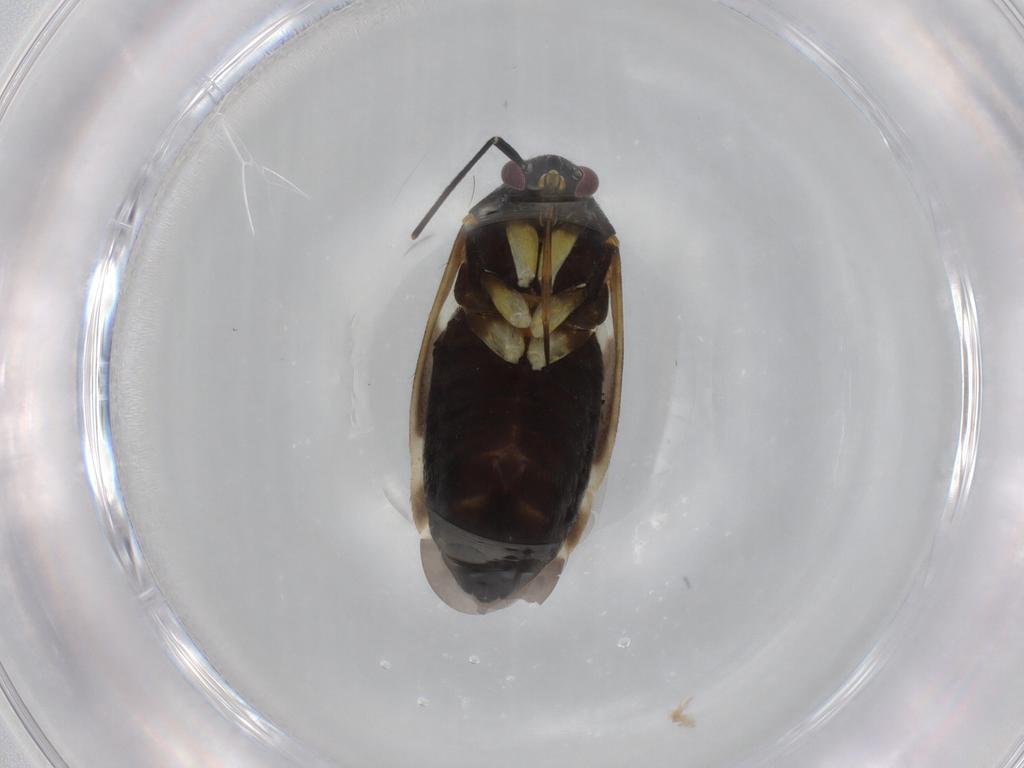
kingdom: Animalia
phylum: Arthropoda
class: Insecta
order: Hemiptera
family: Miridae
